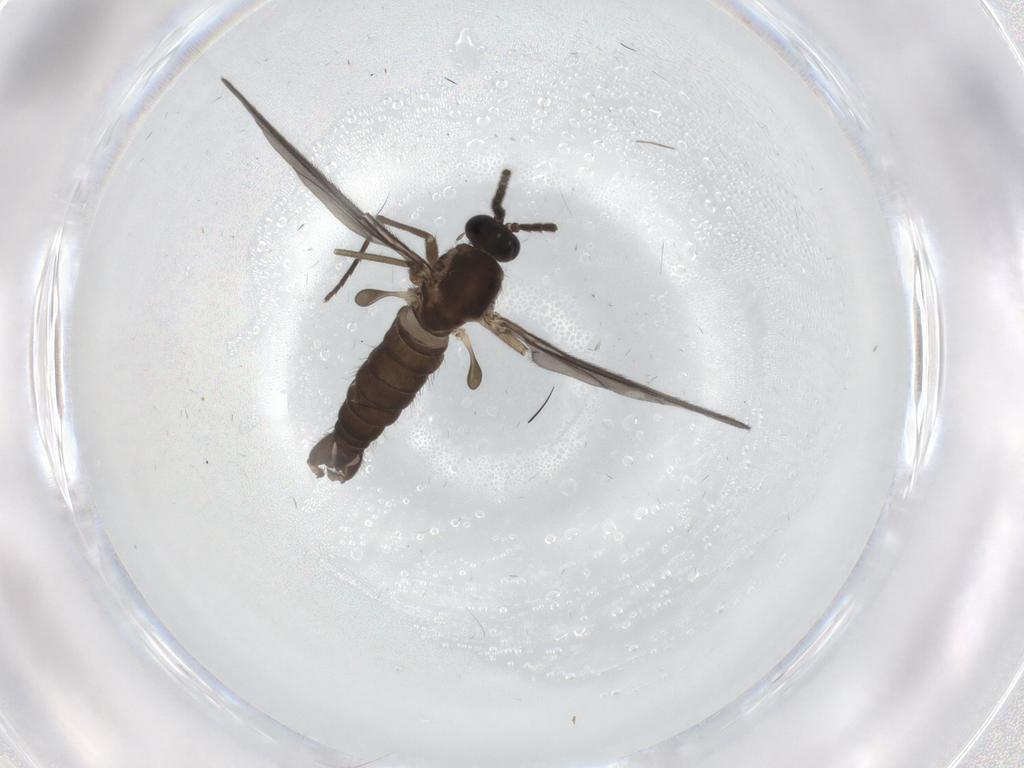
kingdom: Animalia
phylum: Arthropoda
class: Insecta
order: Diptera
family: Sciaridae
